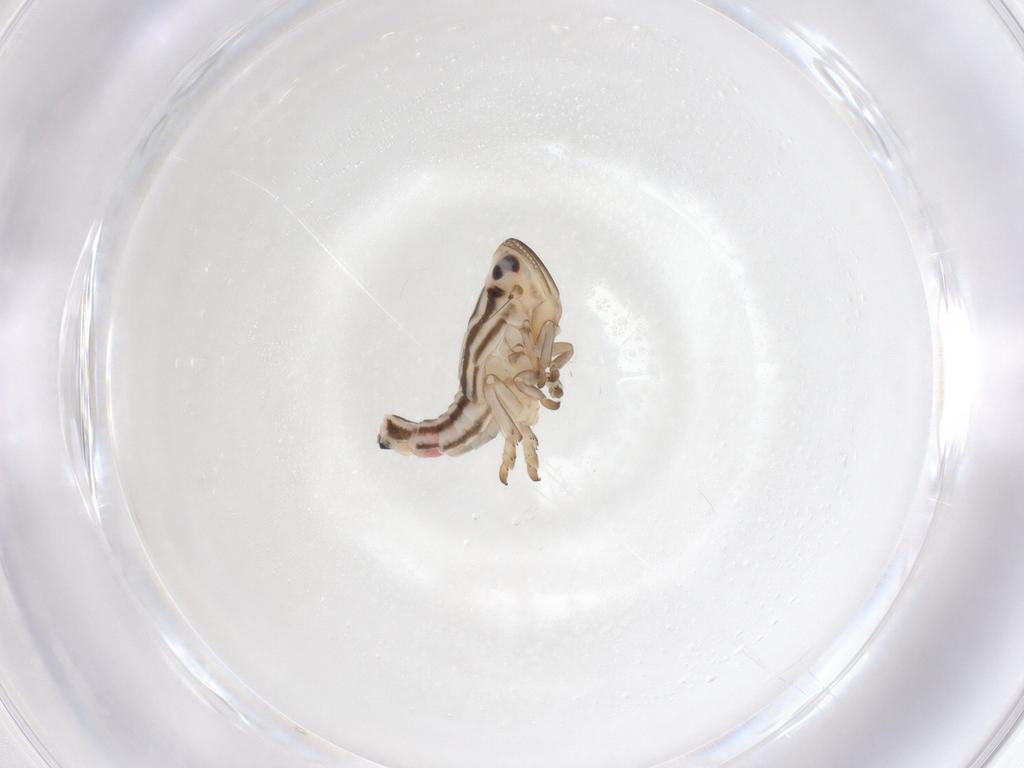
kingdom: Animalia
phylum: Arthropoda
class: Insecta
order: Hemiptera
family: Fulgoroidea_incertae_sedis
